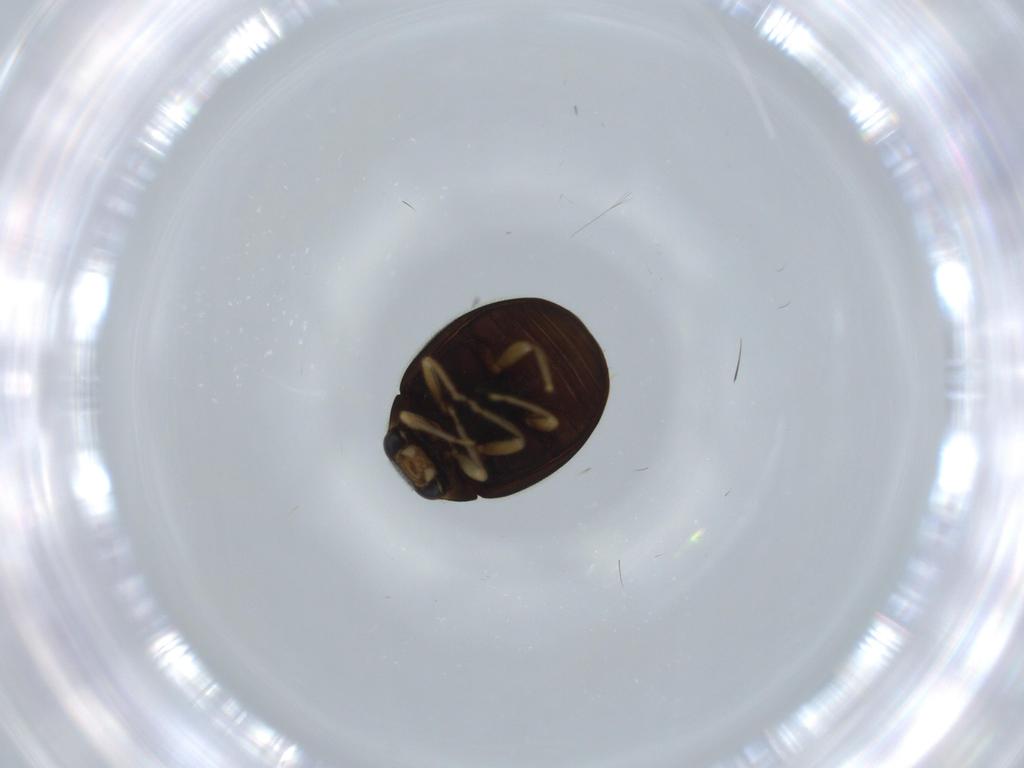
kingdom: Animalia
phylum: Arthropoda
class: Insecta
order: Coleoptera
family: Coccinellidae
